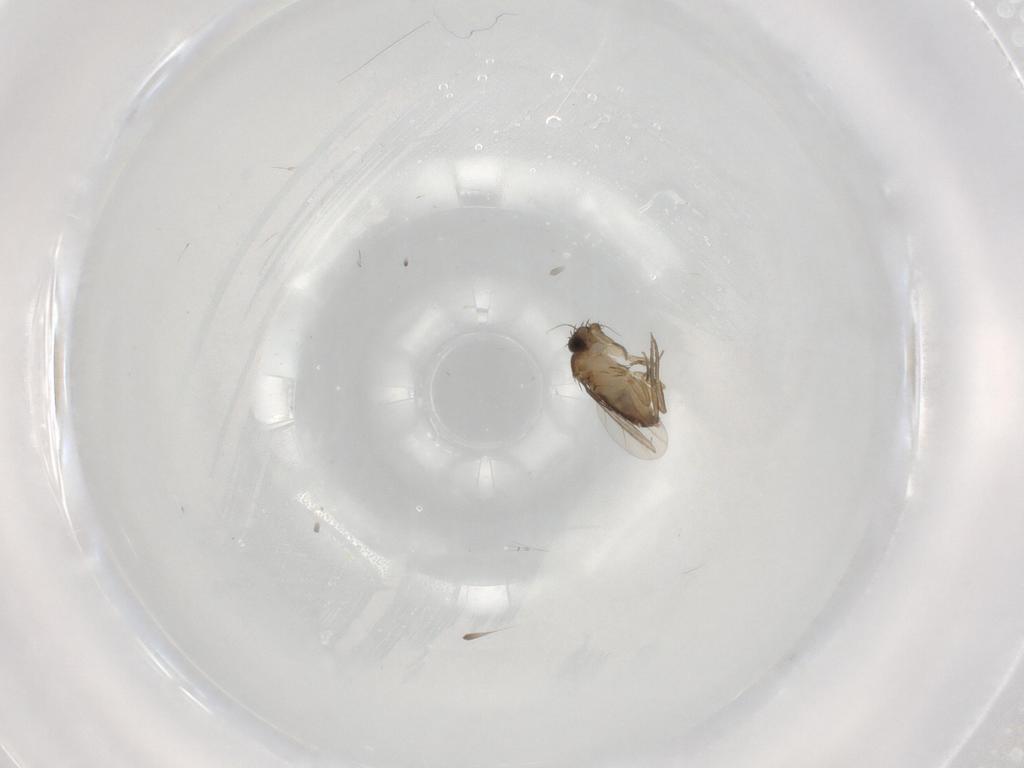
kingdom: Animalia
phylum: Arthropoda
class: Insecta
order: Diptera
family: Phoridae
